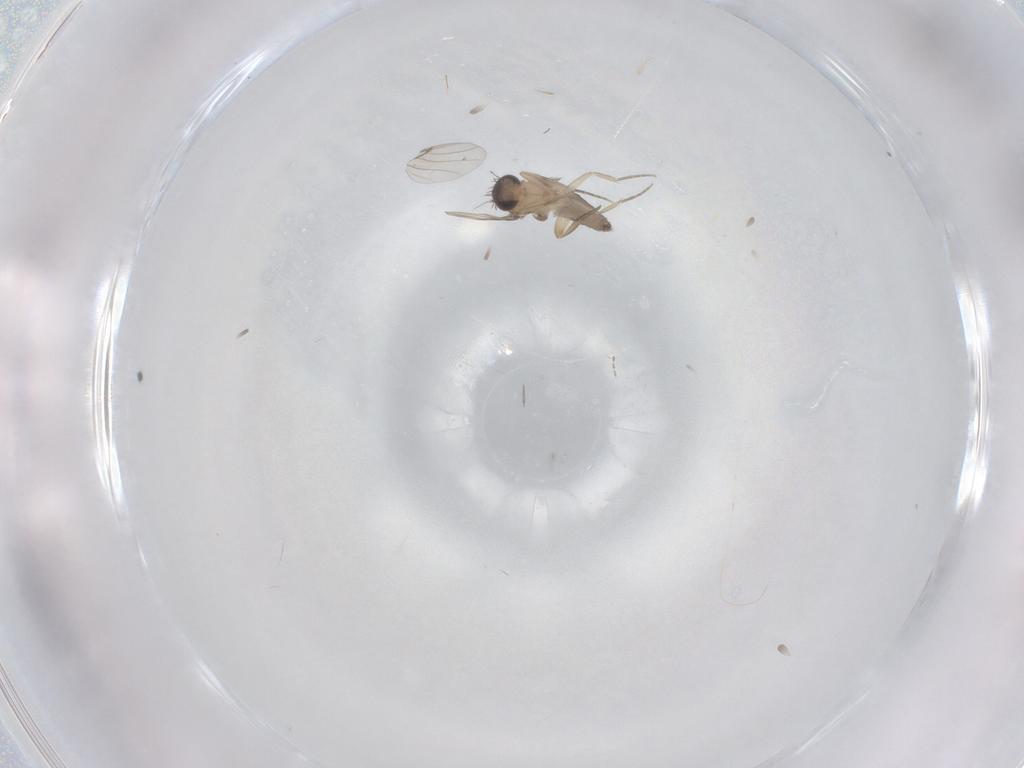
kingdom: Animalia
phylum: Arthropoda
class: Insecta
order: Diptera
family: Phoridae
